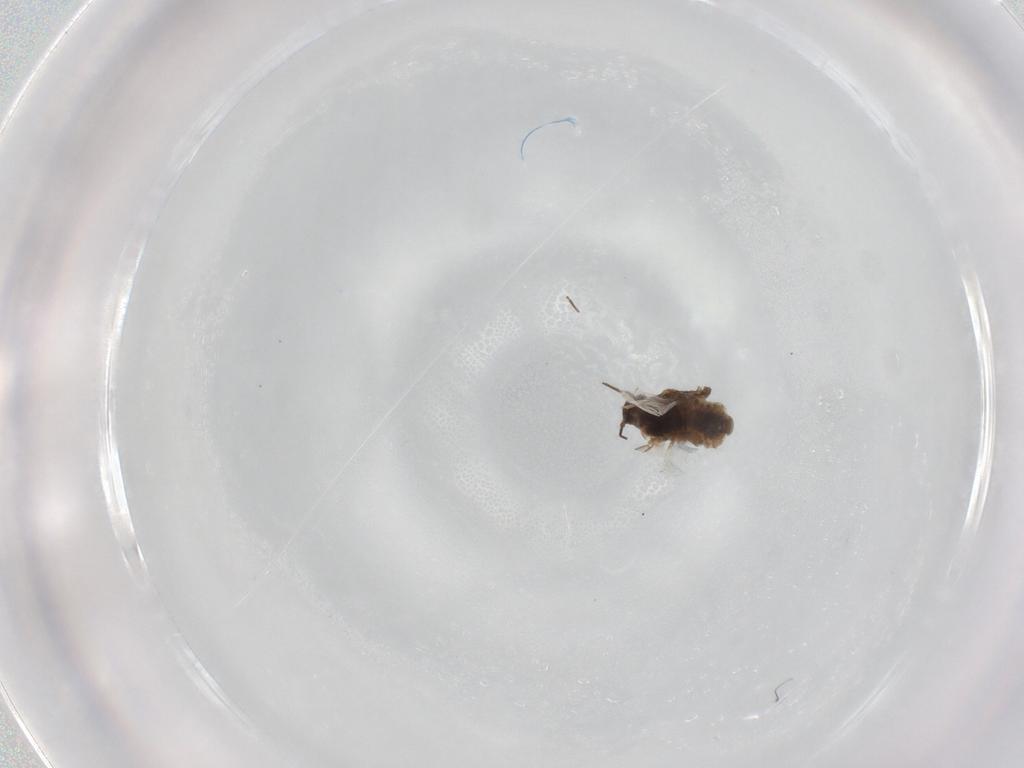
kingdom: Animalia
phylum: Arthropoda
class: Insecta
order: Hemiptera
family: Aphididae
